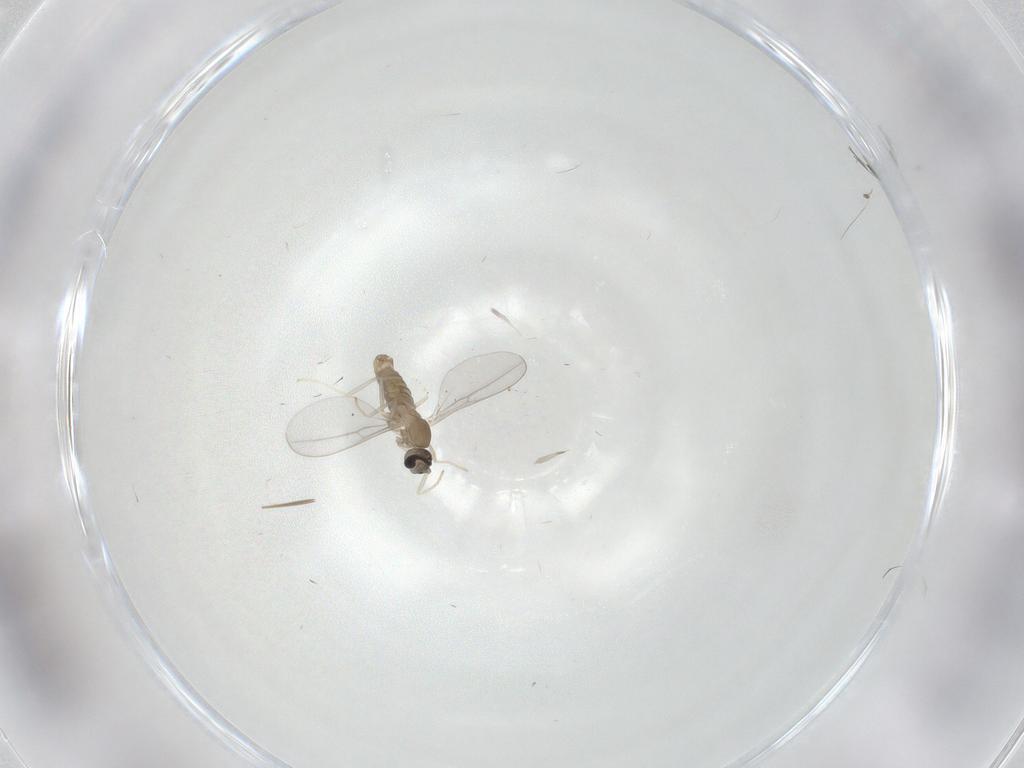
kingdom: Animalia
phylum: Arthropoda
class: Insecta
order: Diptera
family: Cecidomyiidae
